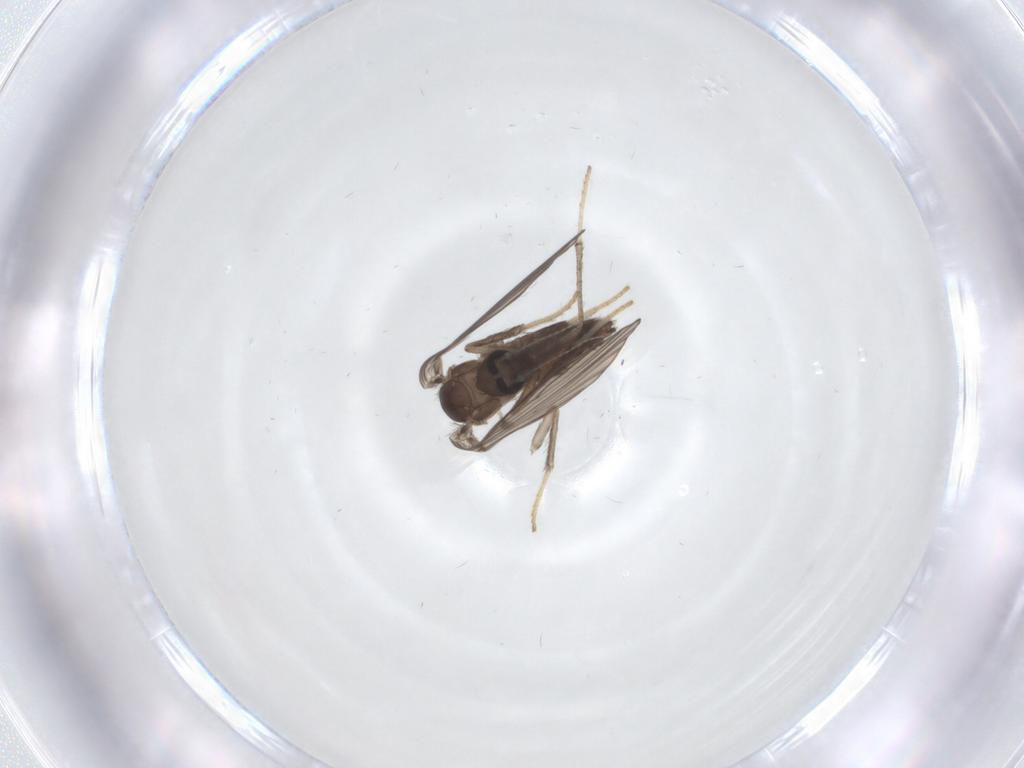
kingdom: Animalia
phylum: Arthropoda
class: Insecta
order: Diptera
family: Psychodidae
